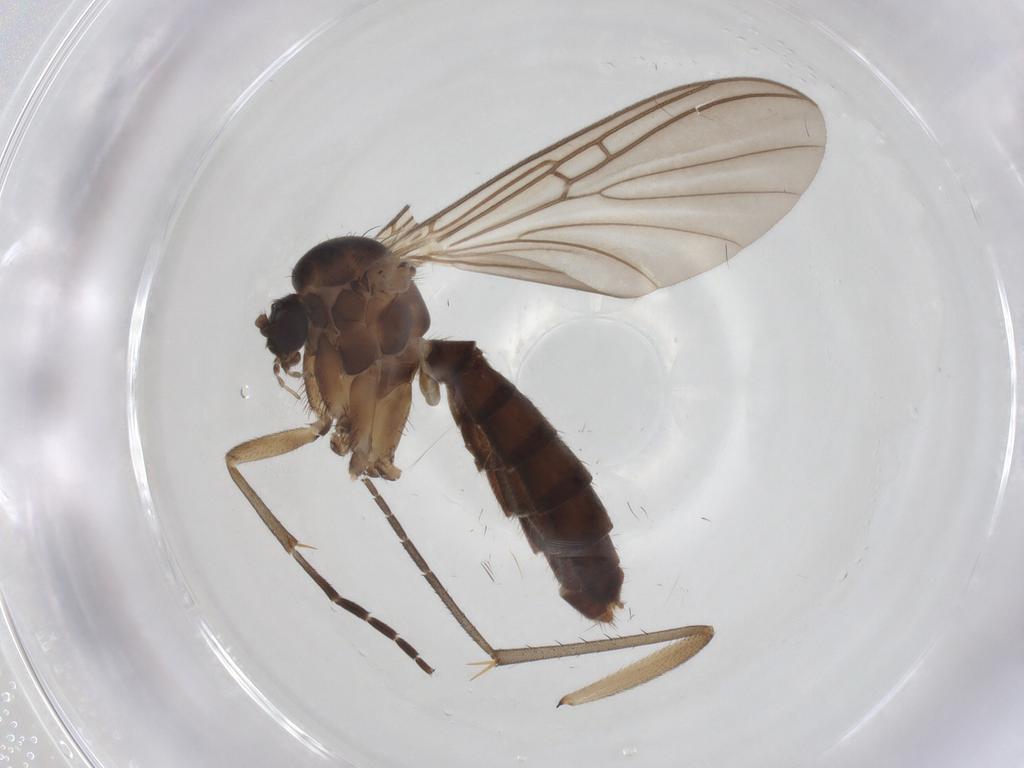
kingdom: Animalia
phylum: Arthropoda
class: Insecta
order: Diptera
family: Mycetophilidae
